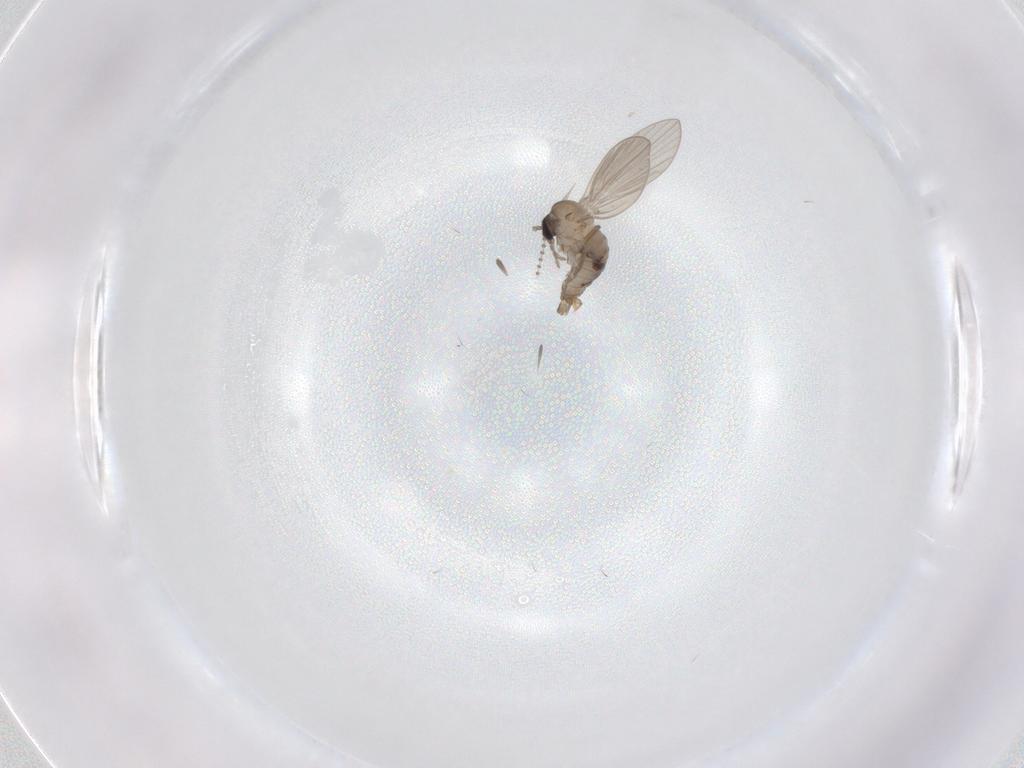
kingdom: Animalia
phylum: Arthropoda
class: Insecta
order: Diptera
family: Psychodidae
